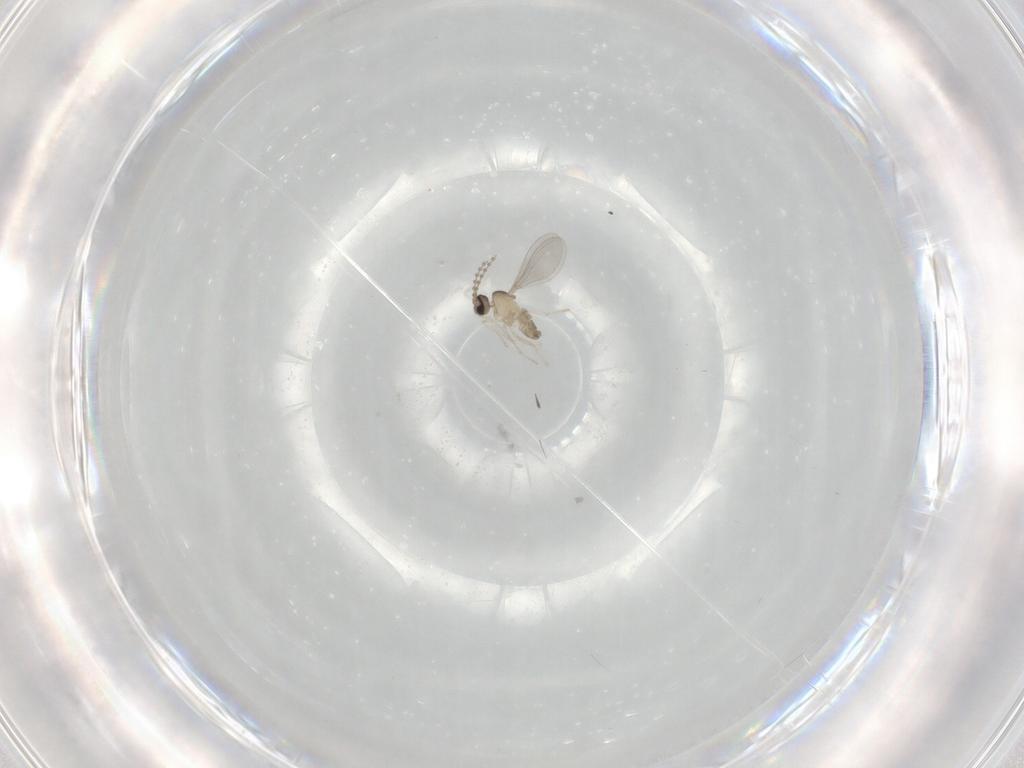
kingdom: Animalia
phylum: Arthropoda
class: Insecta
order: Diptera
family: Cecidomyiidae
